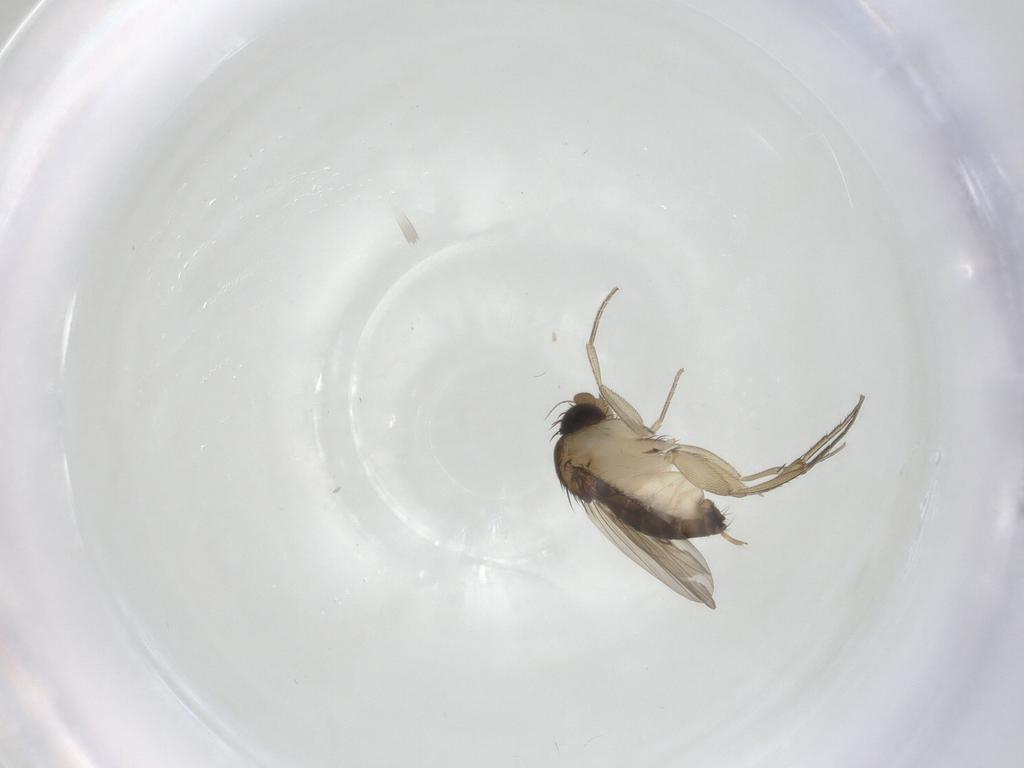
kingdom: Animalia
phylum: Arthropoda
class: Insecta
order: Diptera
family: Phoridae
